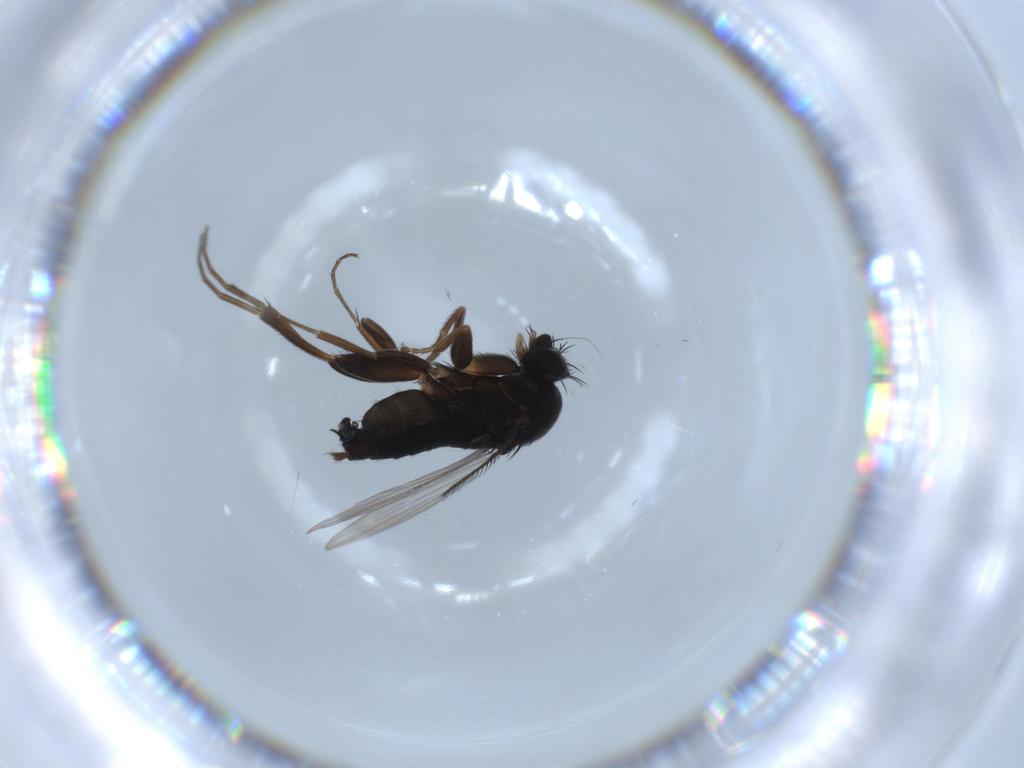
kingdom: Animalia
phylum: Arthropoda
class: Insecta
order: Diptera
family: Phoridae
